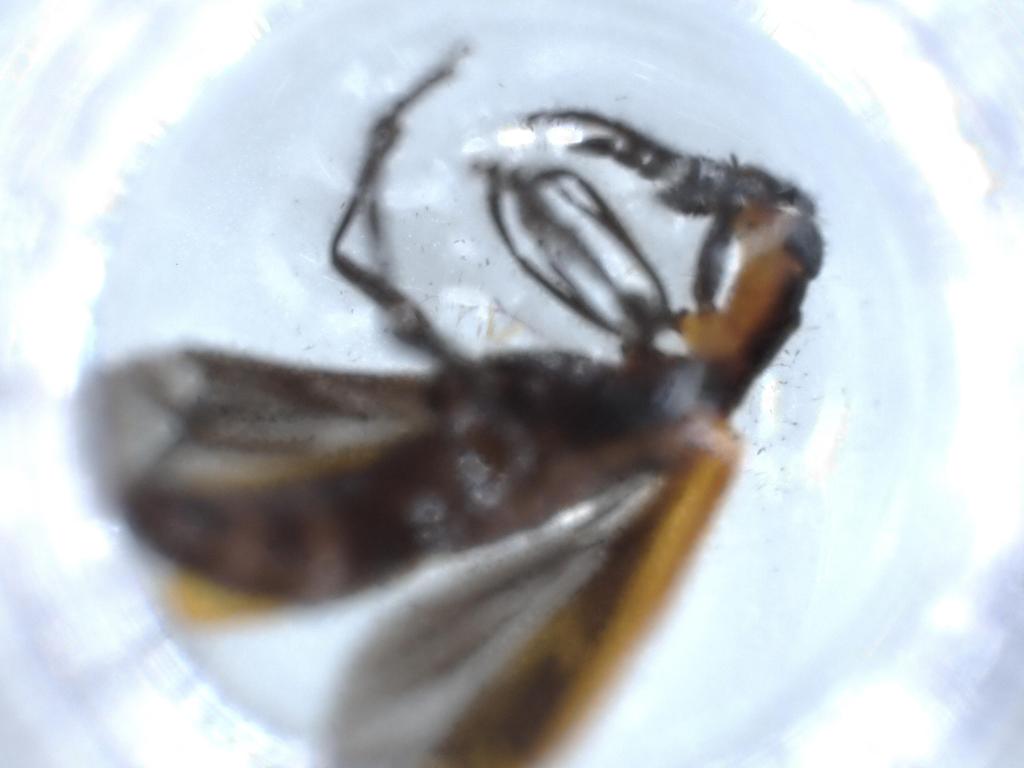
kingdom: Animalia
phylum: Arthropoda
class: Insecta
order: Coleoptera
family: Cleridae
